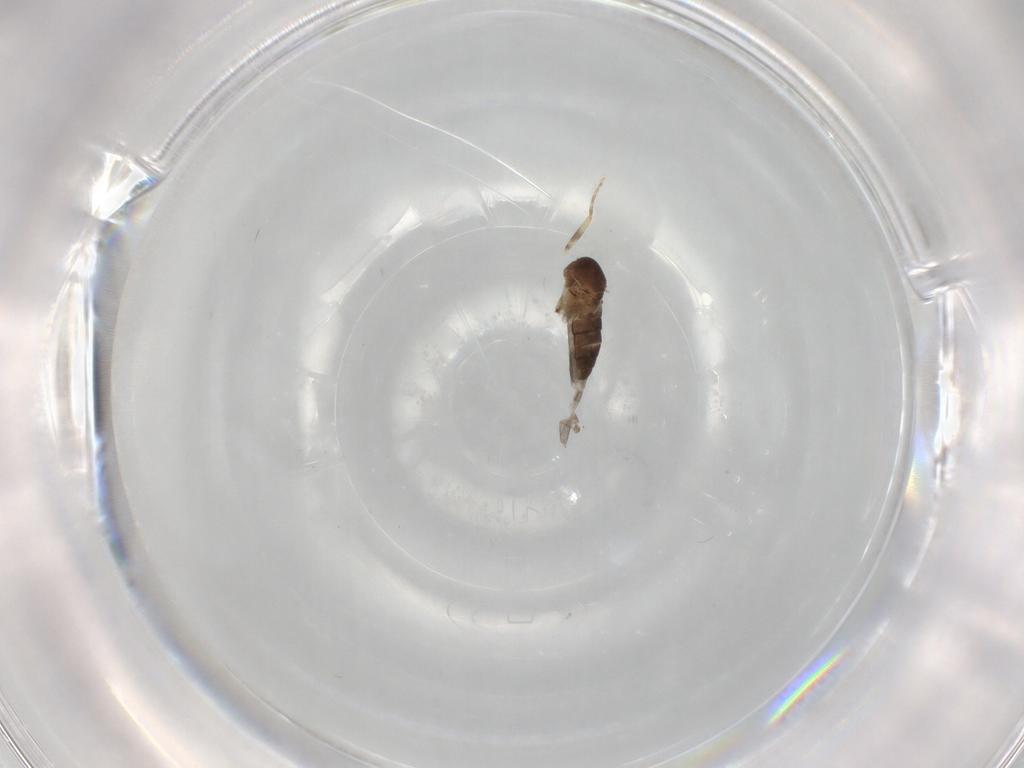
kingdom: Animalia
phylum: Arthropoda
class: Insecta
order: Diptera
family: Ceratopogonidae
